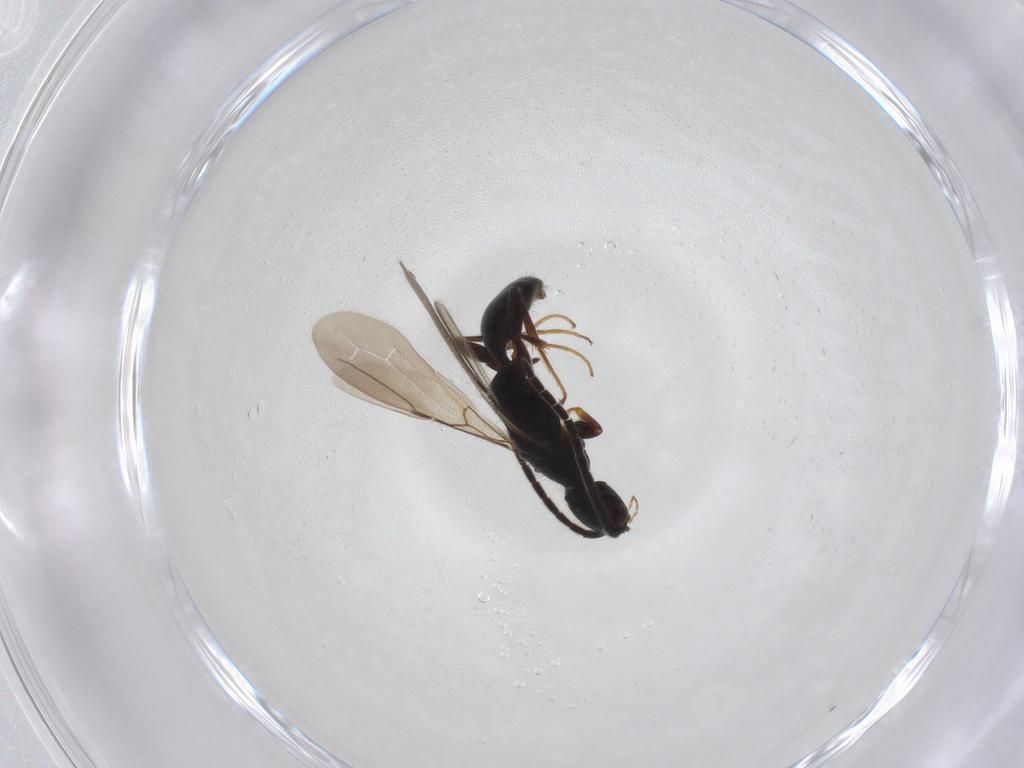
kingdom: Animalia
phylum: Arthropoda
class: Insecta
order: Hymenoptera
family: Bethylidae
